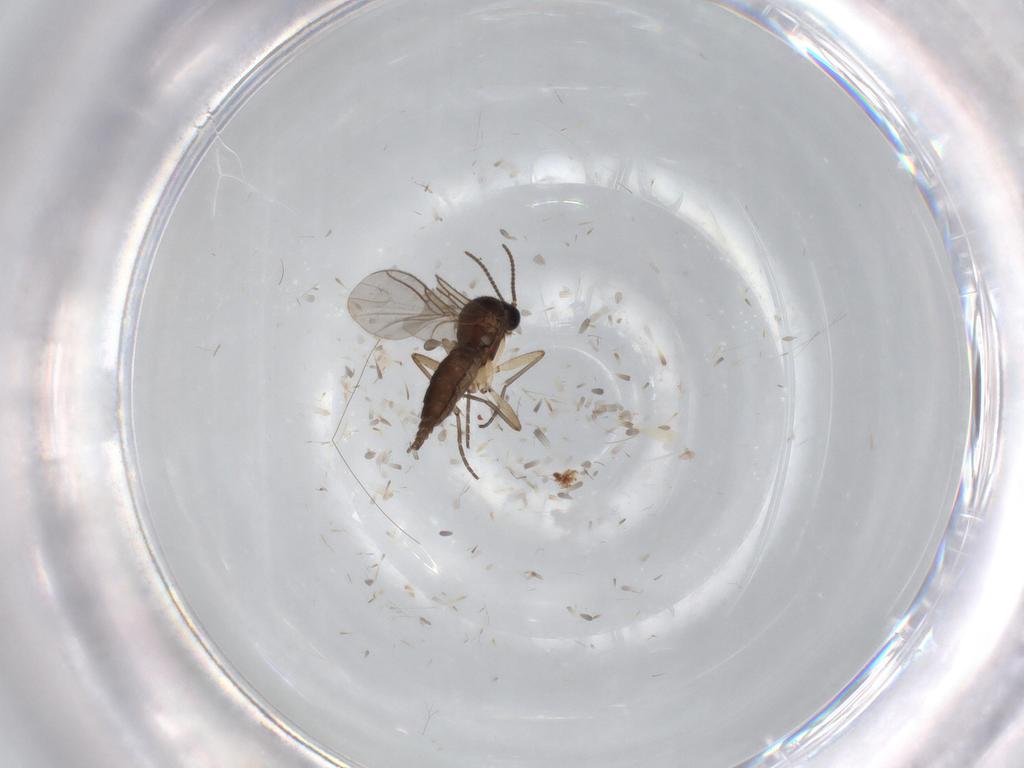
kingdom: Animalia
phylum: Arthropoda
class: Insecta
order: Diptera
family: Sciaridae
